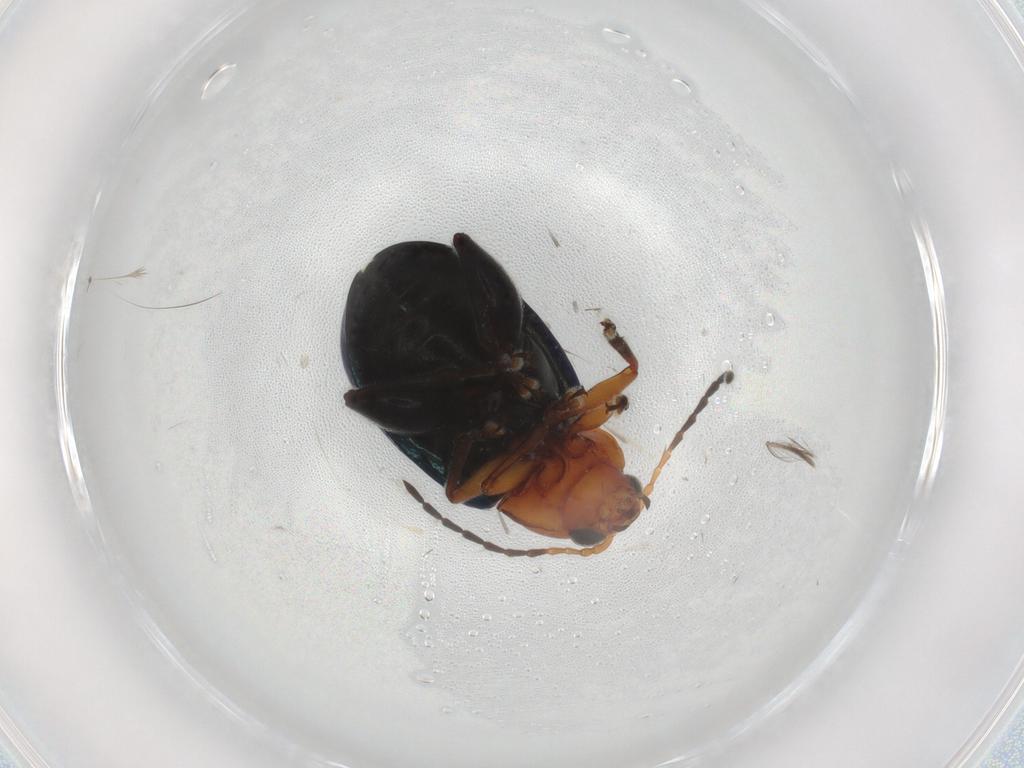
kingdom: Animalia
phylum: Arthropoda
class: Insecta
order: Coleoptera
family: Chrysomelidae
